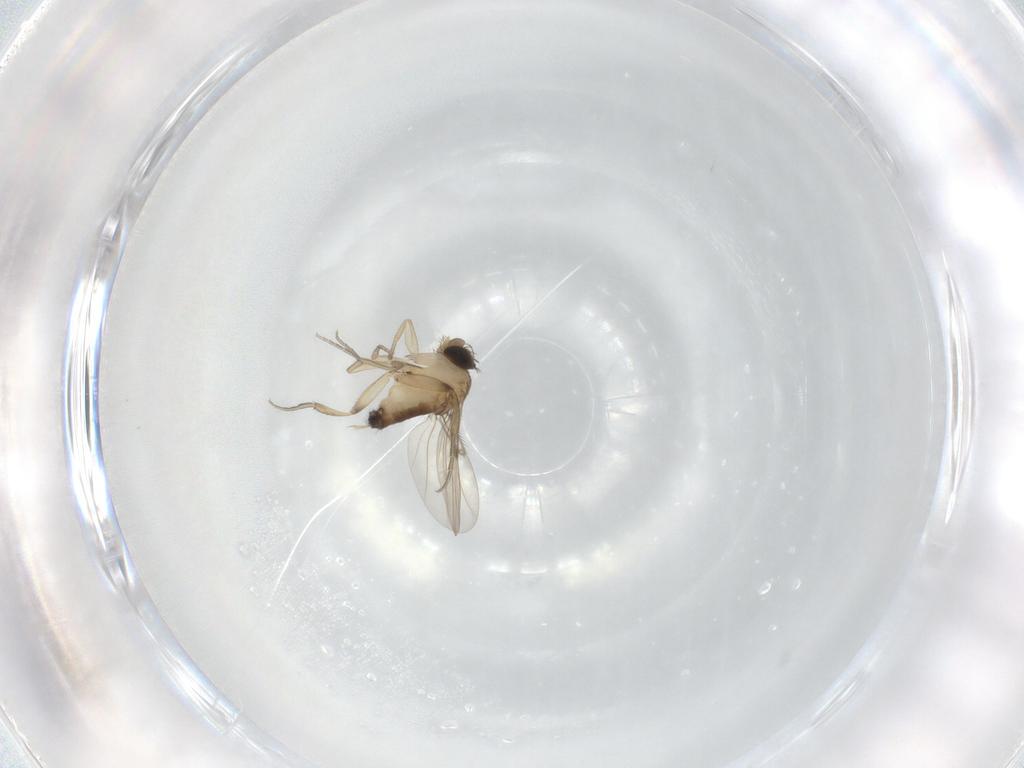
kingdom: Animalia
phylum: Arthropoda
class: Insecta
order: Diptera
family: Phoridae
